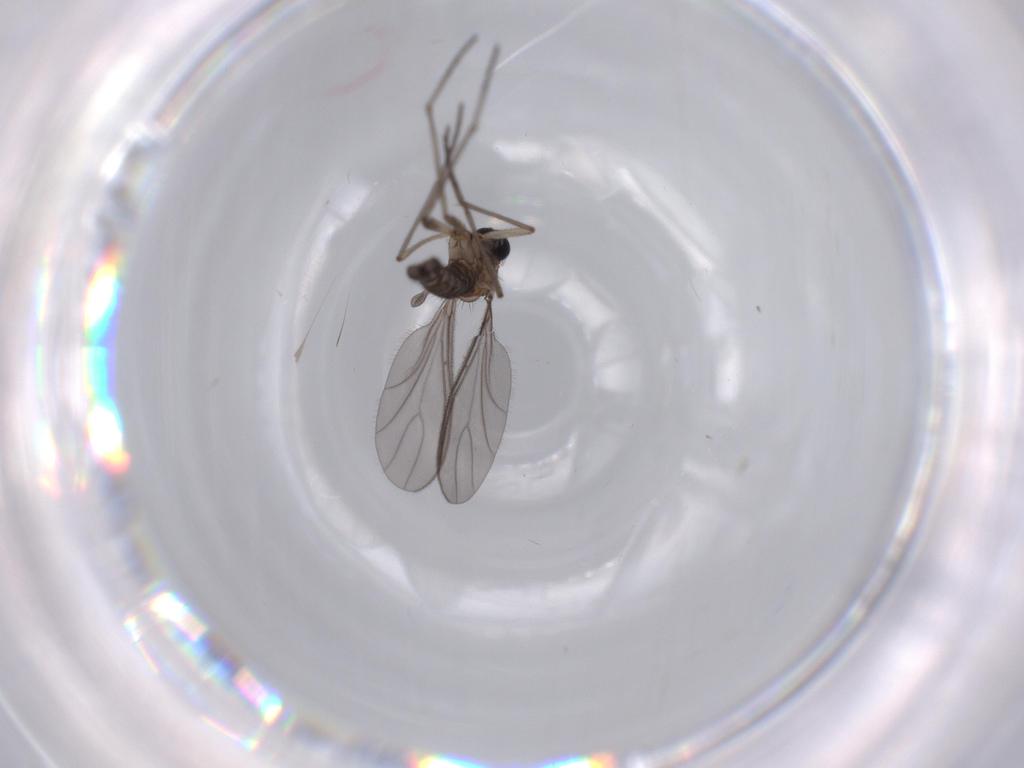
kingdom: Animalia
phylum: Arthropoda
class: Insecta
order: Diptera
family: Sciaridae
